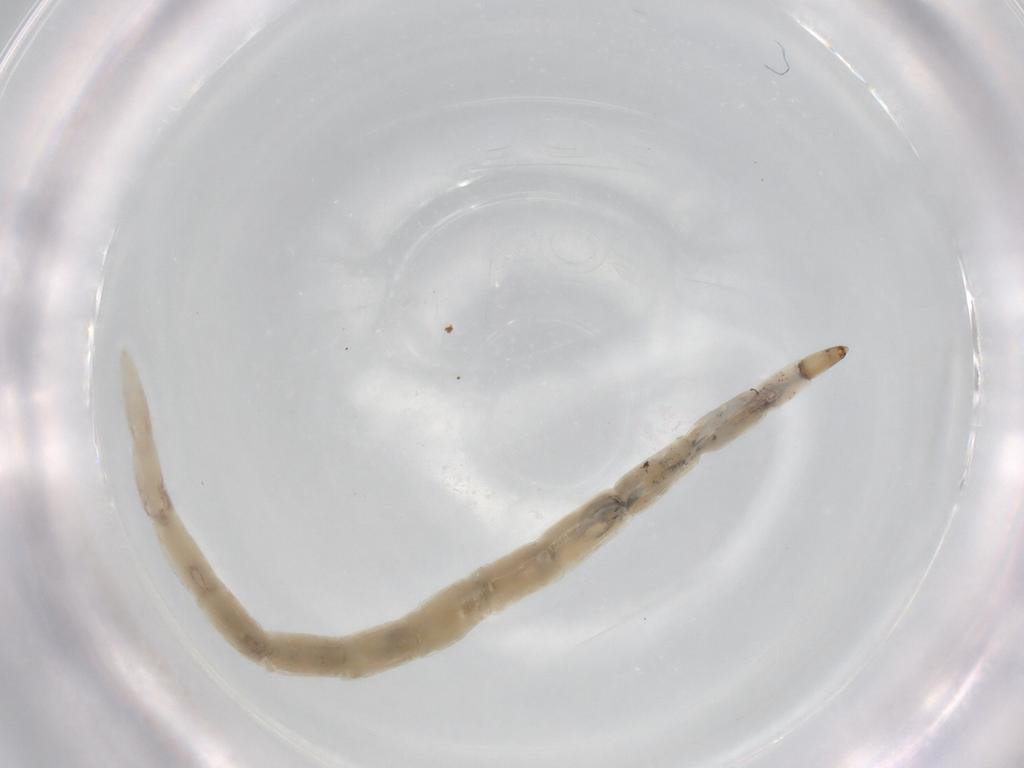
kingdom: Animalia
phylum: Arthropoda
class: Insecta
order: Diptera
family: Ceratopogonidae
